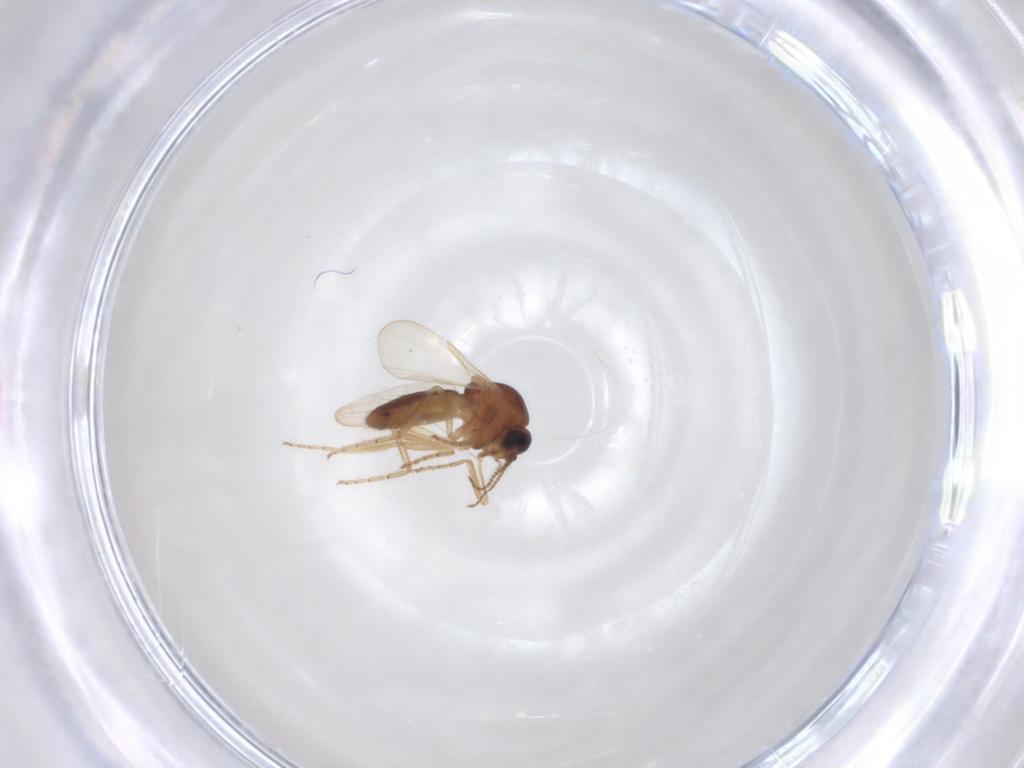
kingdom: Animalia
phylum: Arthropoda
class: Insecta
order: Diptera
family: Ceratopogonidae
